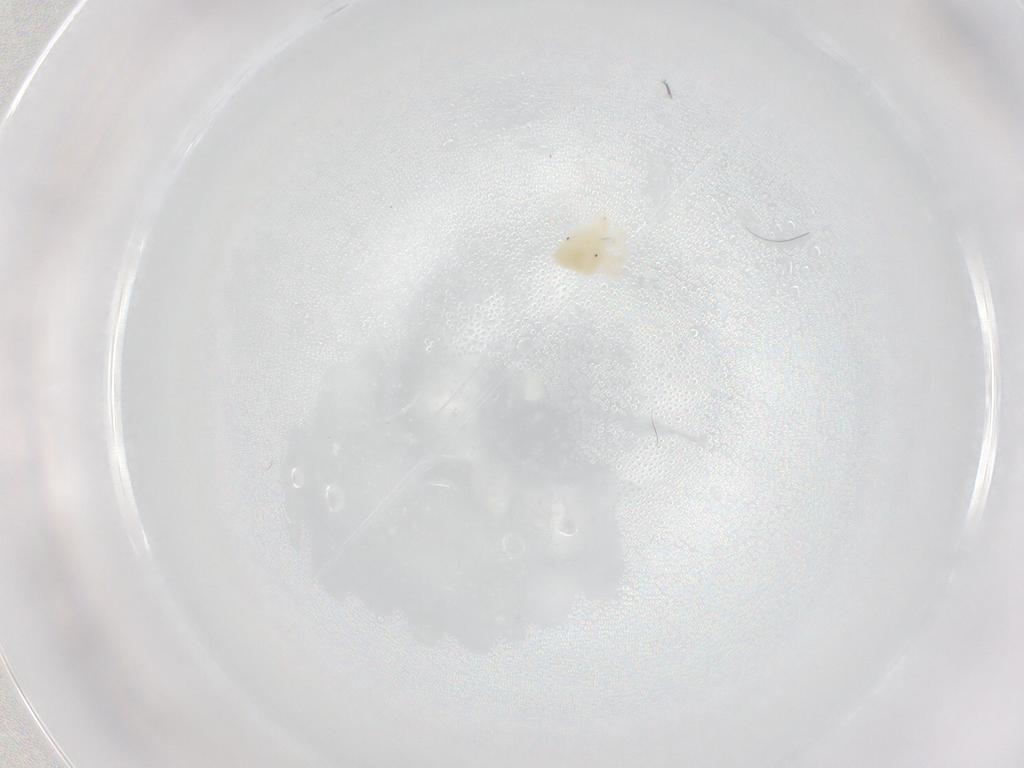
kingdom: Animalia
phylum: Arthropoda
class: Arachnida
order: Trombidiformes
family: Anystidae
